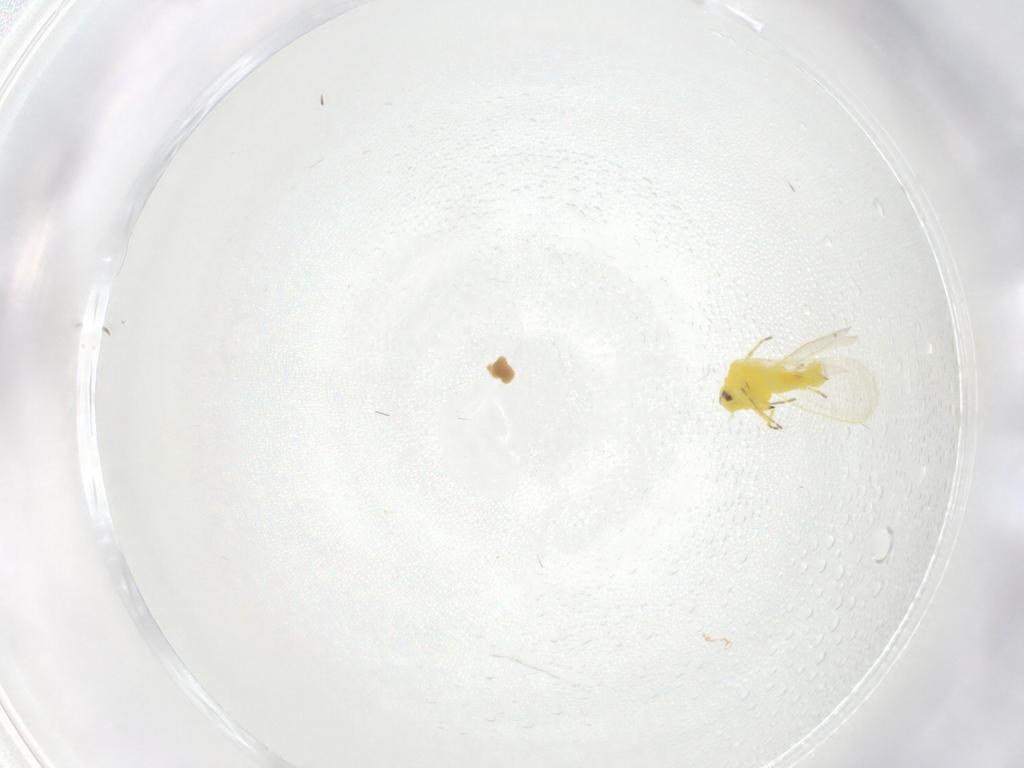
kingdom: Animalia
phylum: Arthropoda
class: Insecta
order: Hemiptera
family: Aleyrodidae
